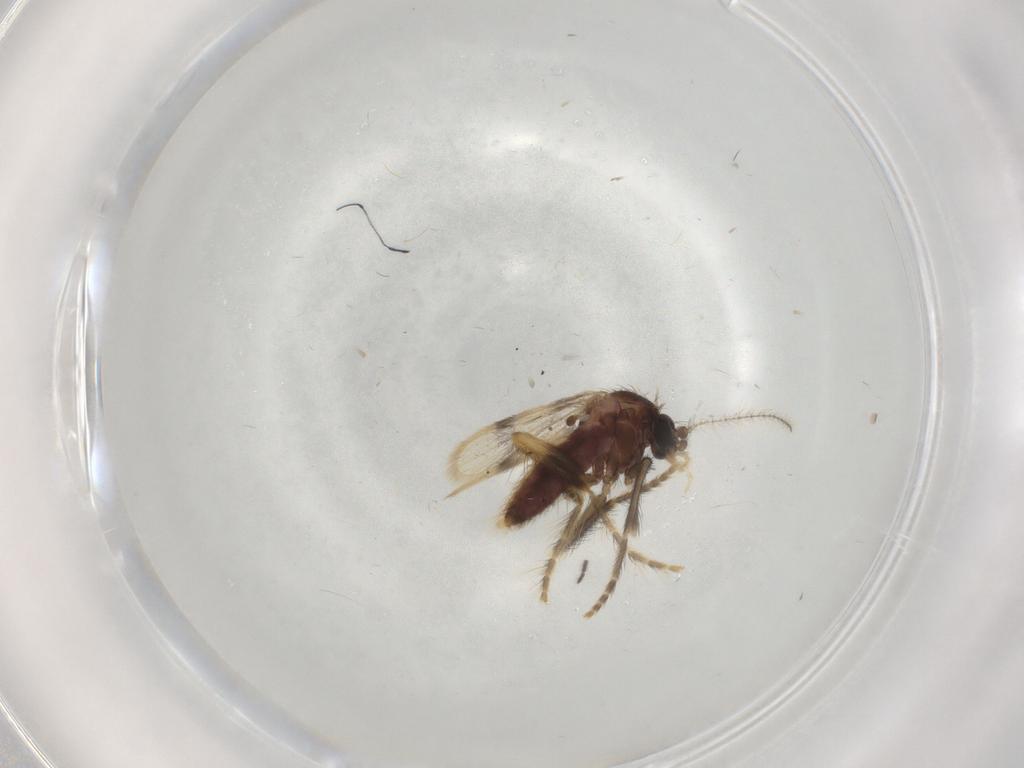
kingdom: Animalia
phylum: Arthropoda
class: Insecta
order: Diptera
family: Corethrellidae
